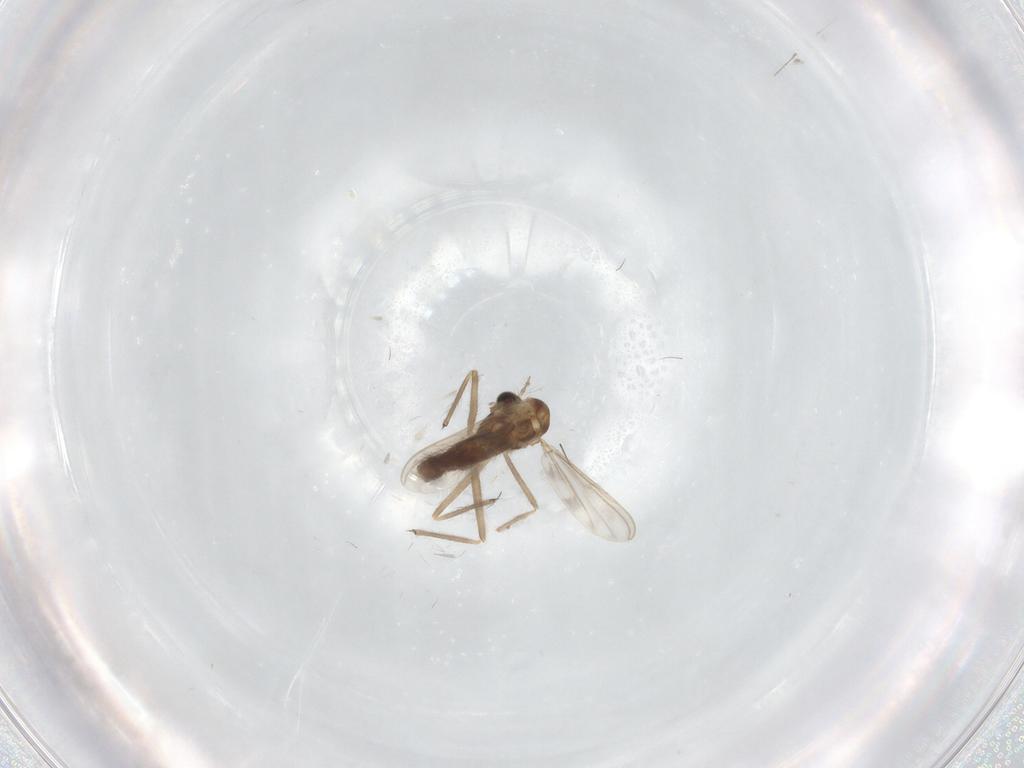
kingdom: Animalia
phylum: Arthropoda
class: Insecta
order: Diptera
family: Chironomidae
